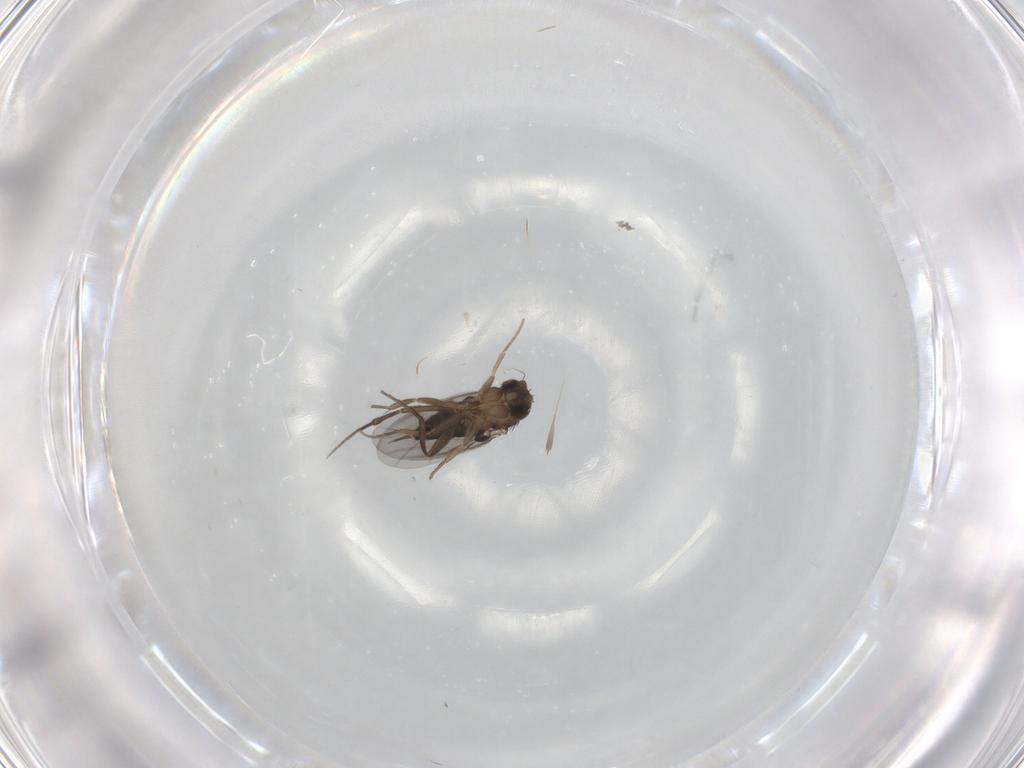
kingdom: Animalia
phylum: Arthropoda
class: Insecta
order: Diptera
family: Phoridae
